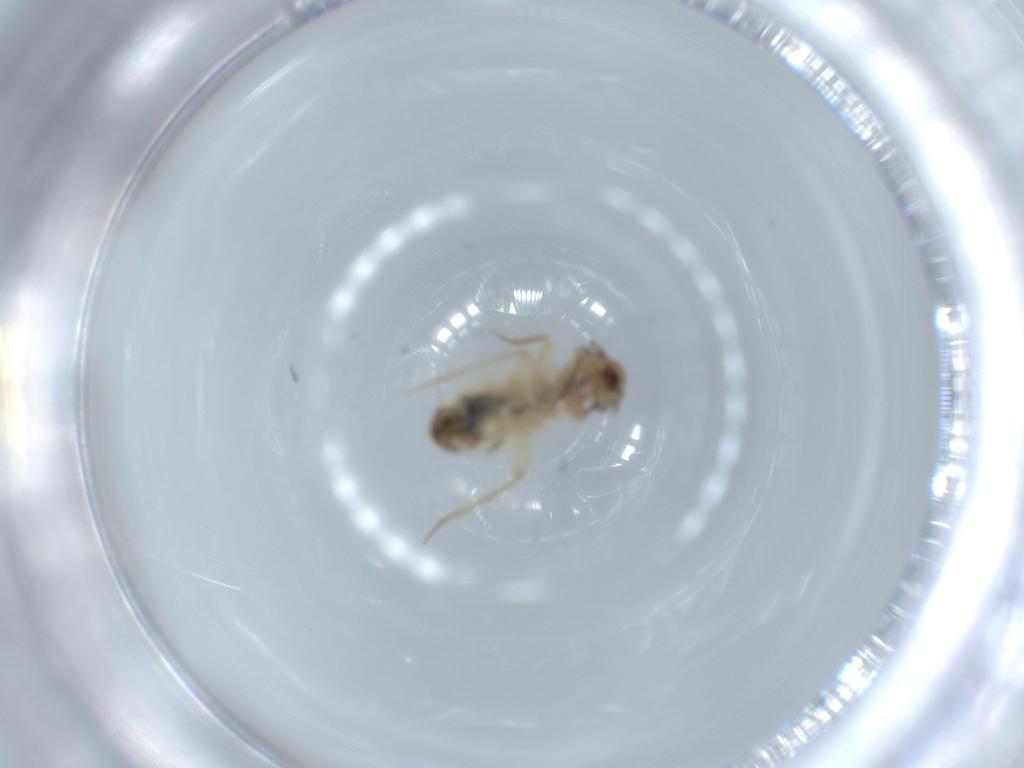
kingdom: Animalia
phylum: Arthropoda
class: Insecta
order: Psocodea
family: Lepidopsocidae
